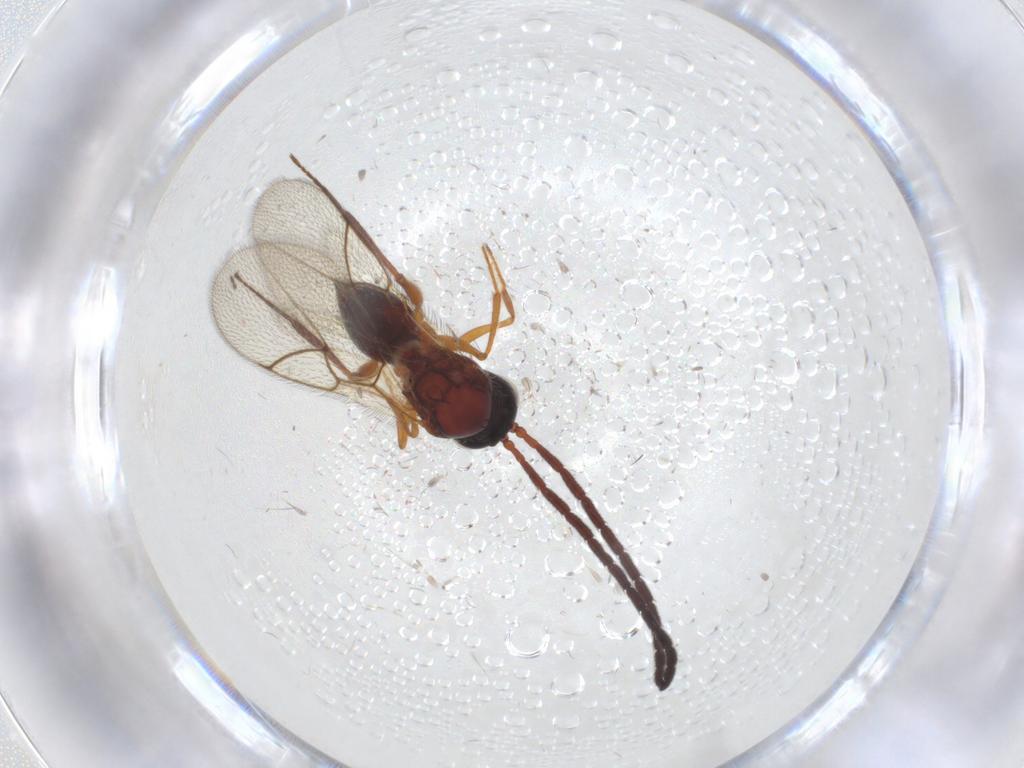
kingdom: Animalia
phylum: Arthropoda
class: Insecta
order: Hymenoptera
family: Figitidae
